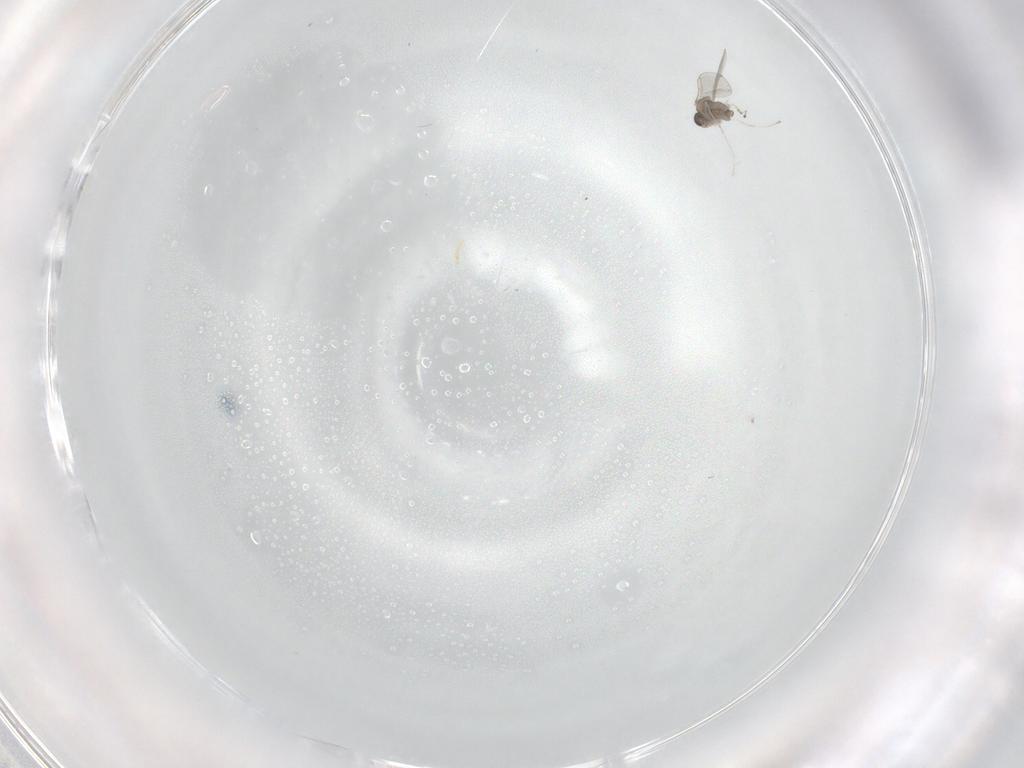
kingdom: Animalia
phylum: Arthropoda
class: Insecta
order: Diptera
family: Cecidomyiidae
